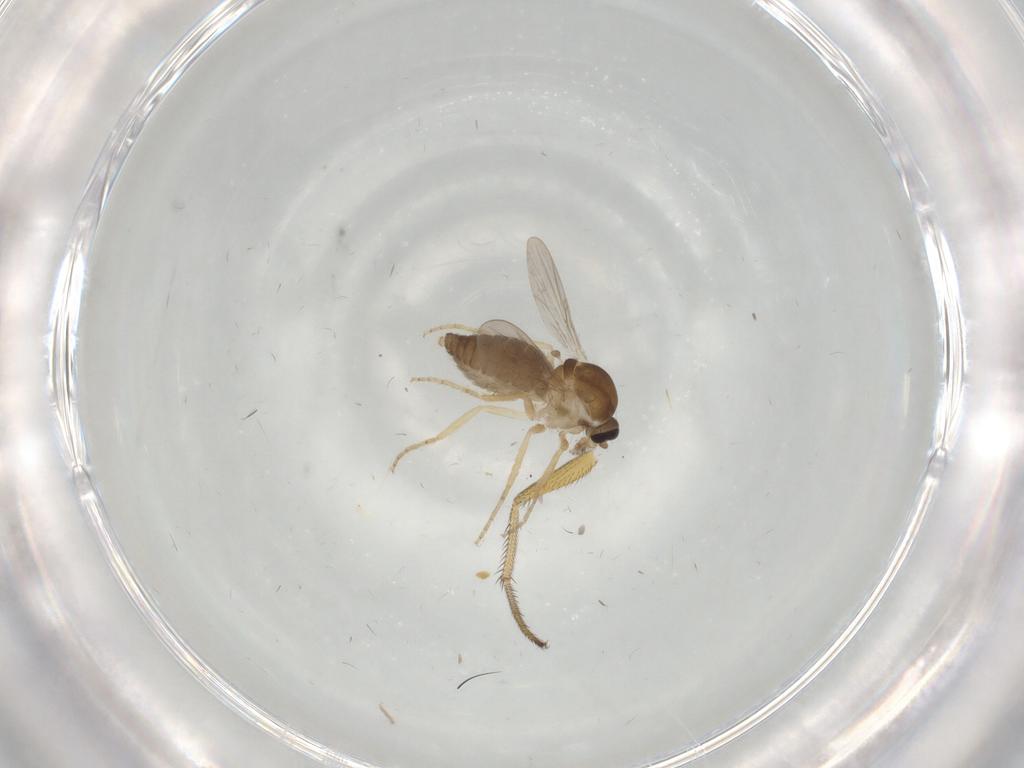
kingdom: Animalia
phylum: Arthropoda
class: Insecta
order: Diptera
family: Ceratopogonidae
